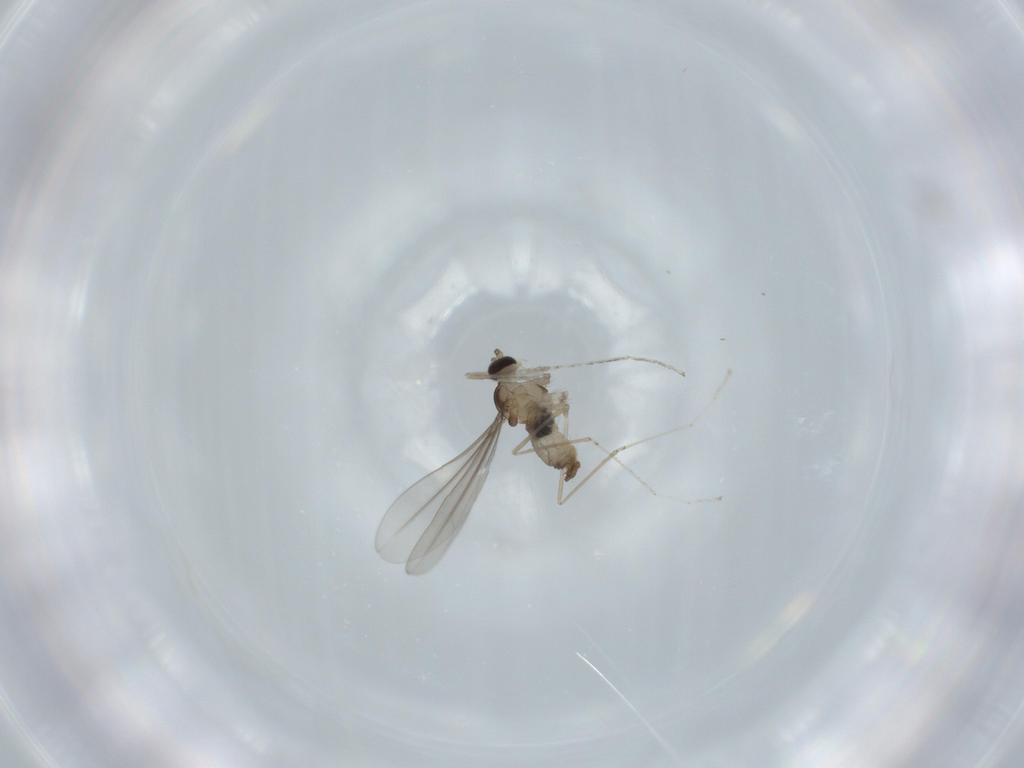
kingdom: Animalia
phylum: Arthropoda
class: Insecta
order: Diptera
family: Cecidomyiidae
